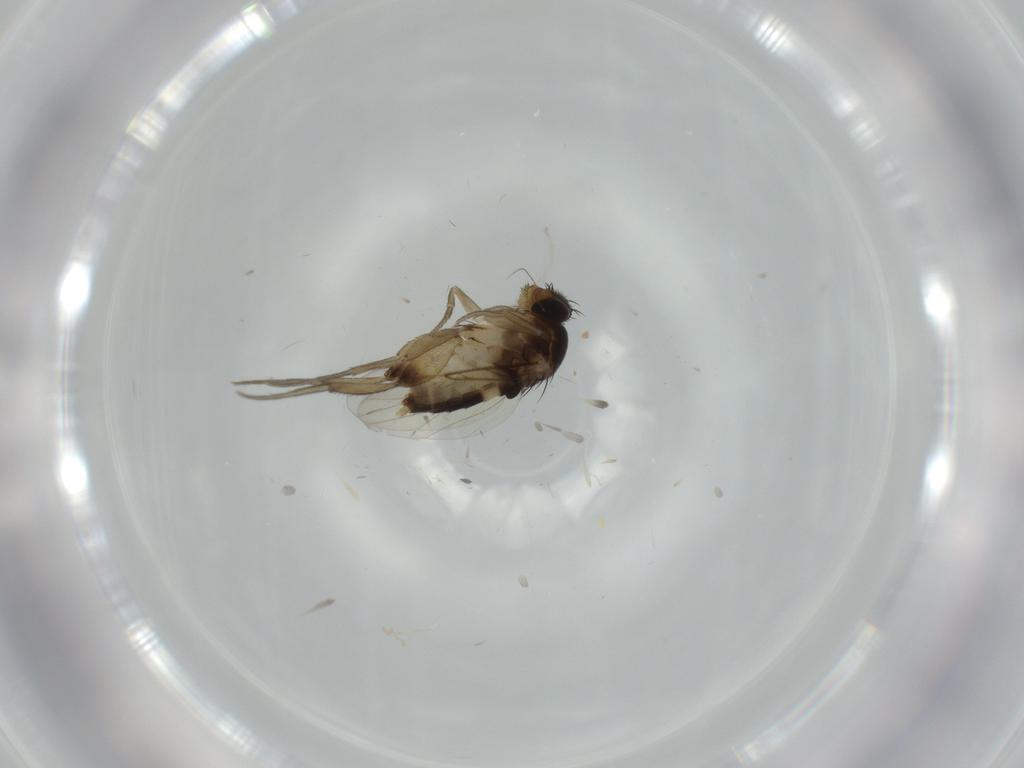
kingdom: Animalia
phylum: Arthropoda
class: Insecta
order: Diptera
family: Phoridae
